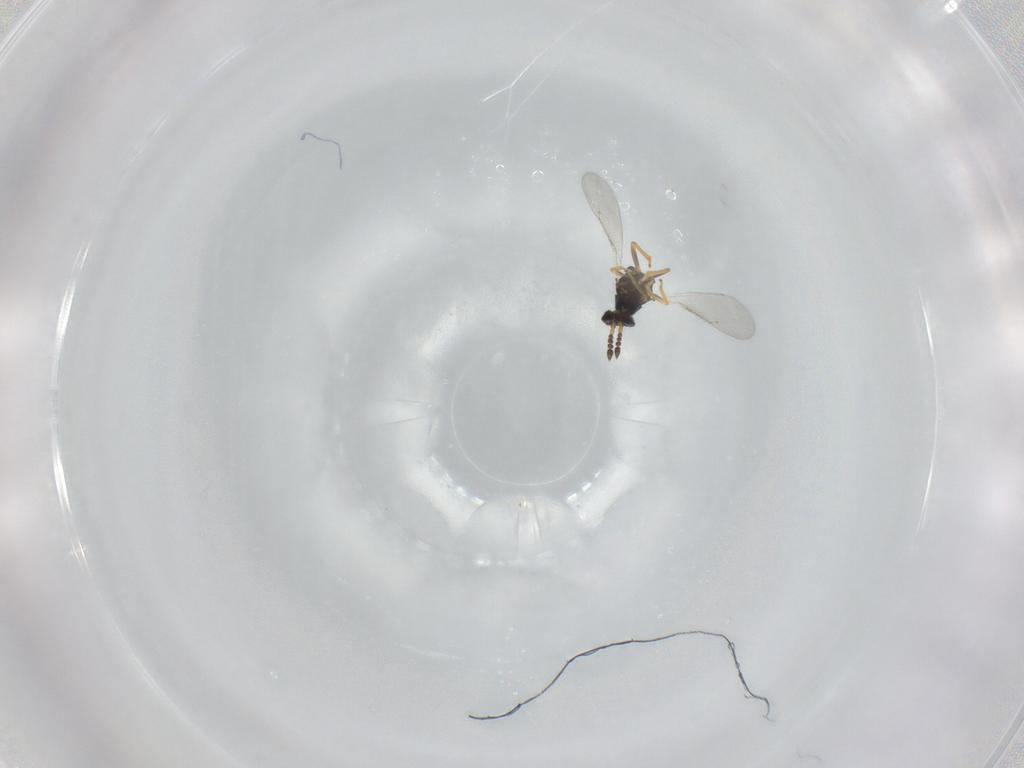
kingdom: Animalia
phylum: Arthropoda
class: Insecta
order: Hymenoptera
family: Eulophidae
